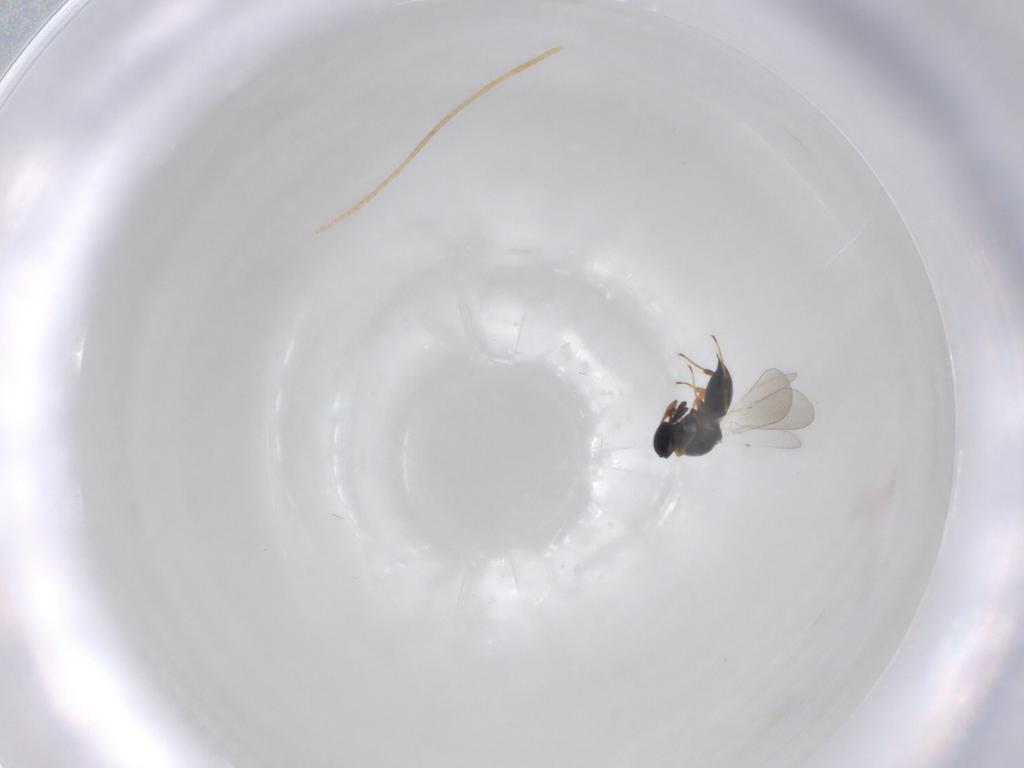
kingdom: Animalia
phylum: Arthropoda
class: Insecta
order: Hymenoptera
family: Platygastridae
